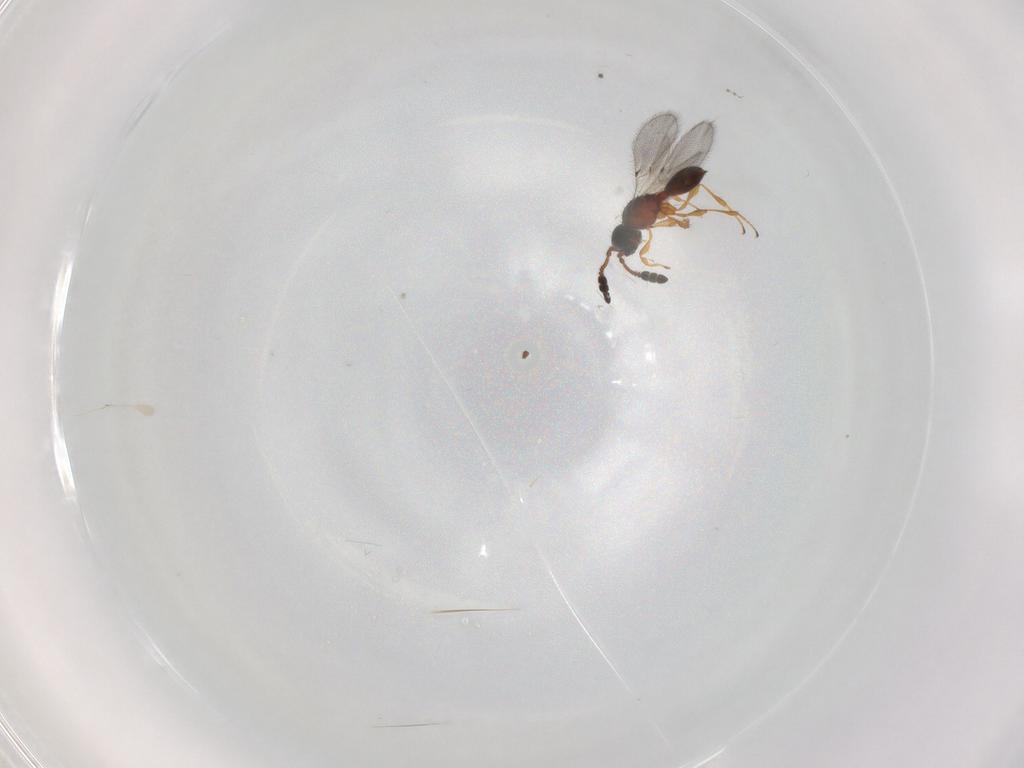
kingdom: Animalia
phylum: Arthropoda
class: Insecta
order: Hymenoptera
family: Diapriidae
